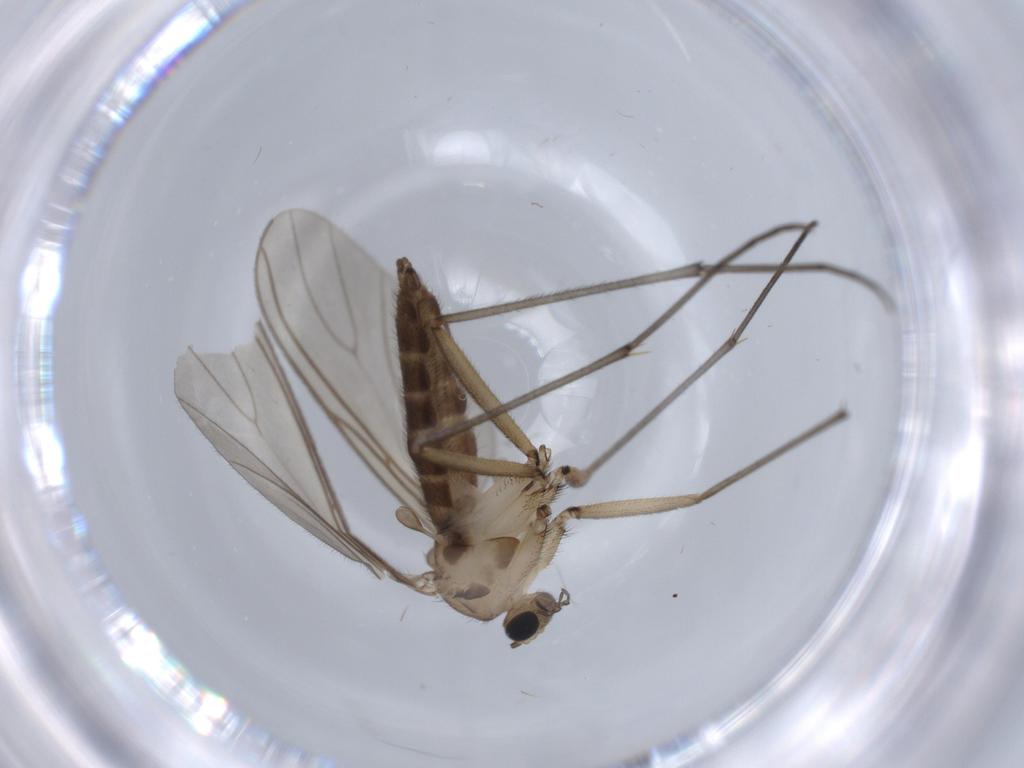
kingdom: Animalia
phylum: Arthropoda
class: Insecta
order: Diptera
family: Sciaridae
